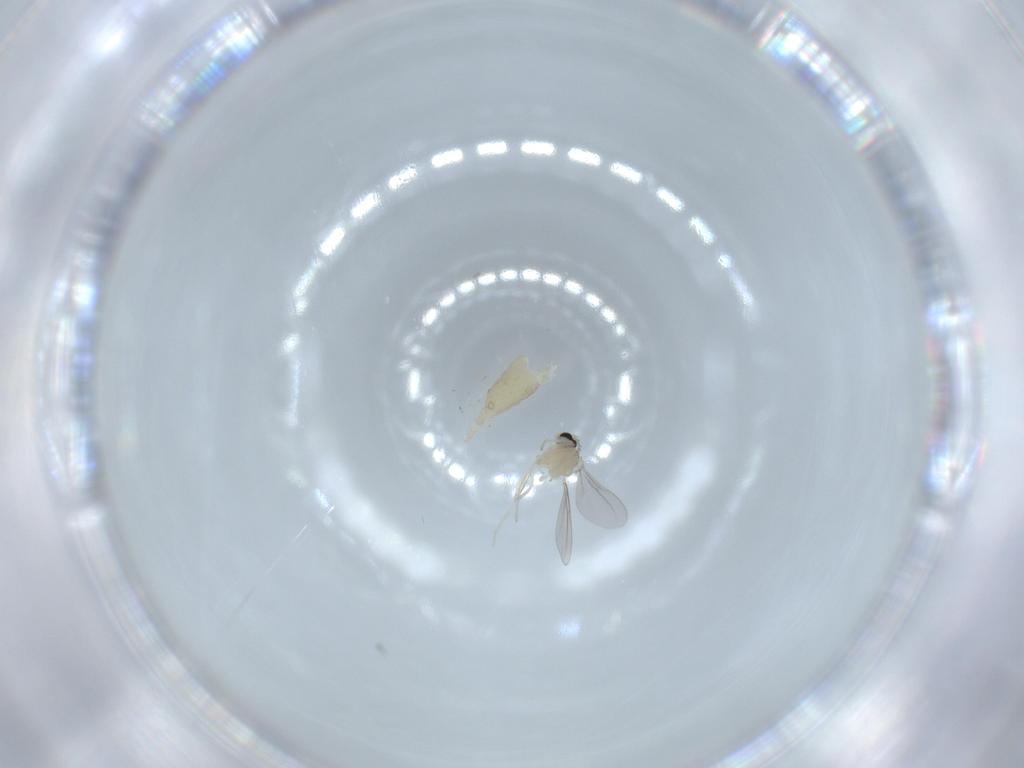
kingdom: Animalia
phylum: Arthropoda
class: Insecta
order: Diptera
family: Cecidomyiidae
